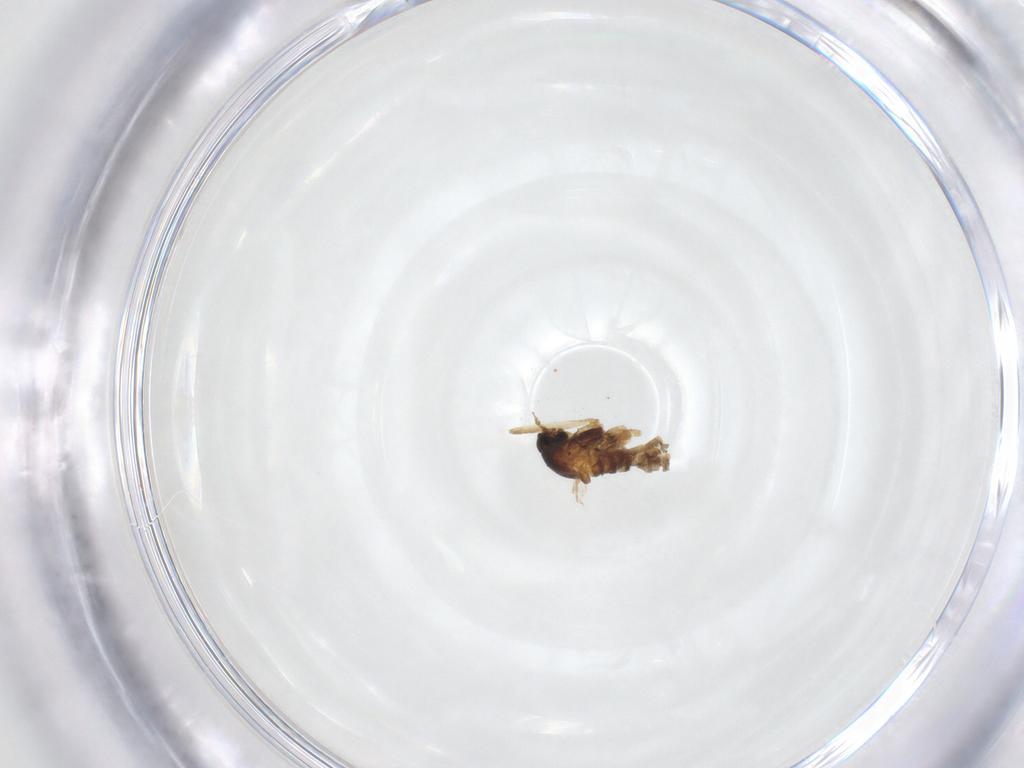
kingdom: Animalia
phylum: Arthropoda
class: Insecta
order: Diptera
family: Cecidomyiidae
